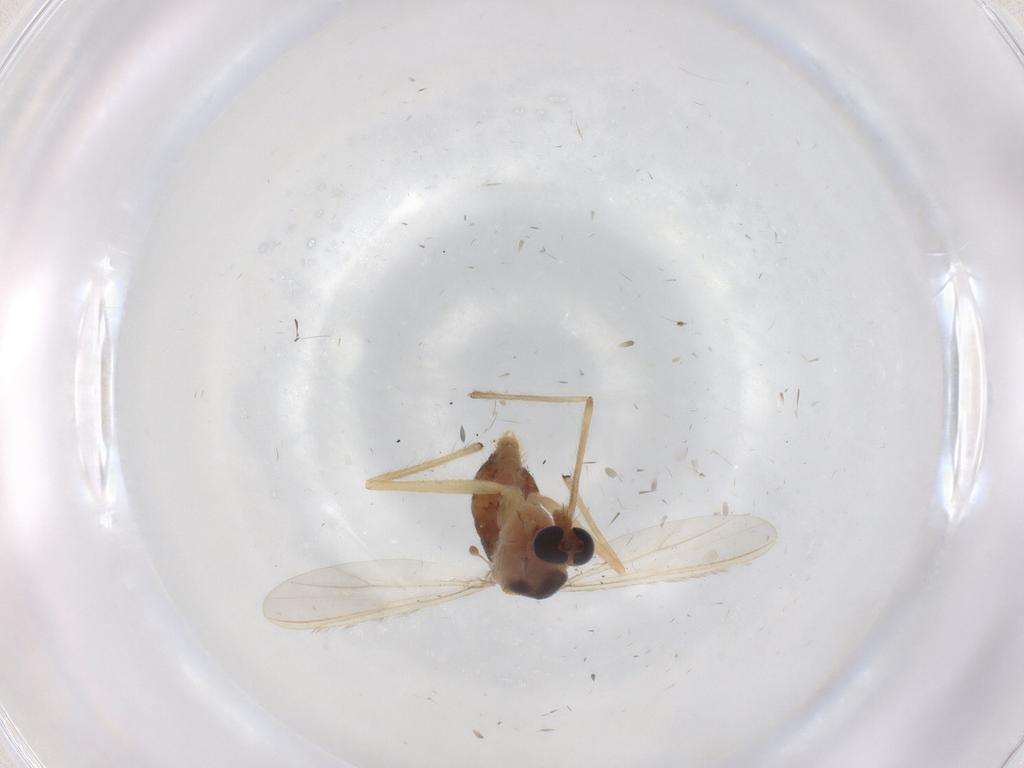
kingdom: Animalia
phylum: Arthropoda
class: Insecta
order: Diptera
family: Chironomidae
